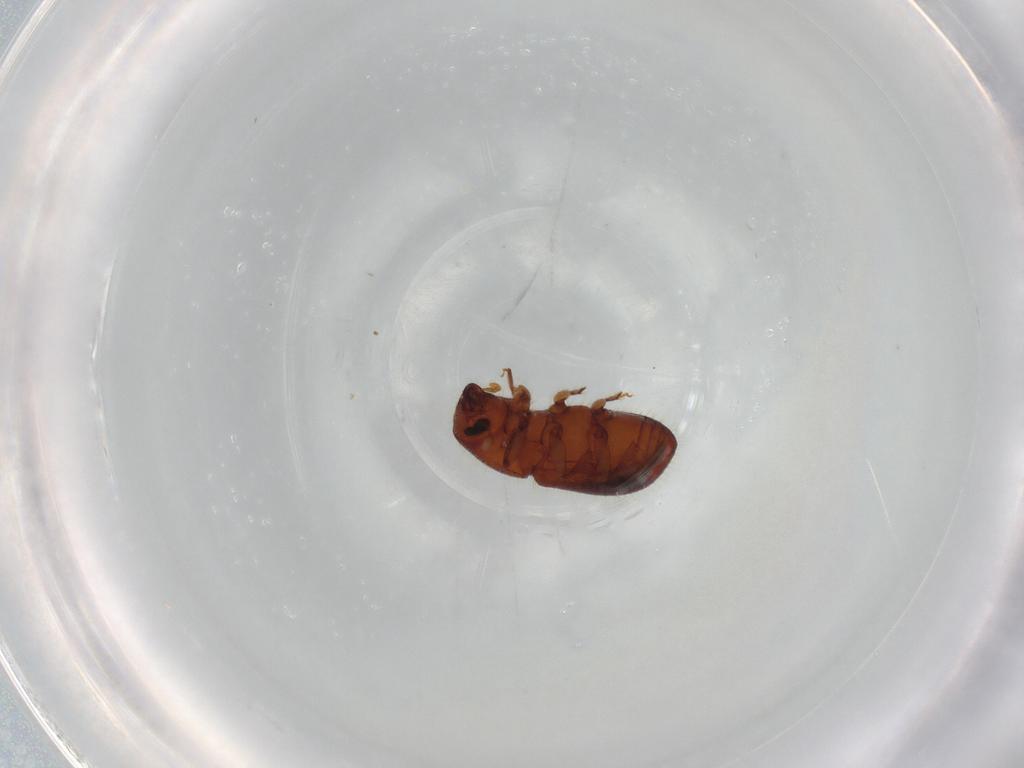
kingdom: Animalia
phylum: Arthropoda
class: Insecta
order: Coleoptera
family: Curculionidae
